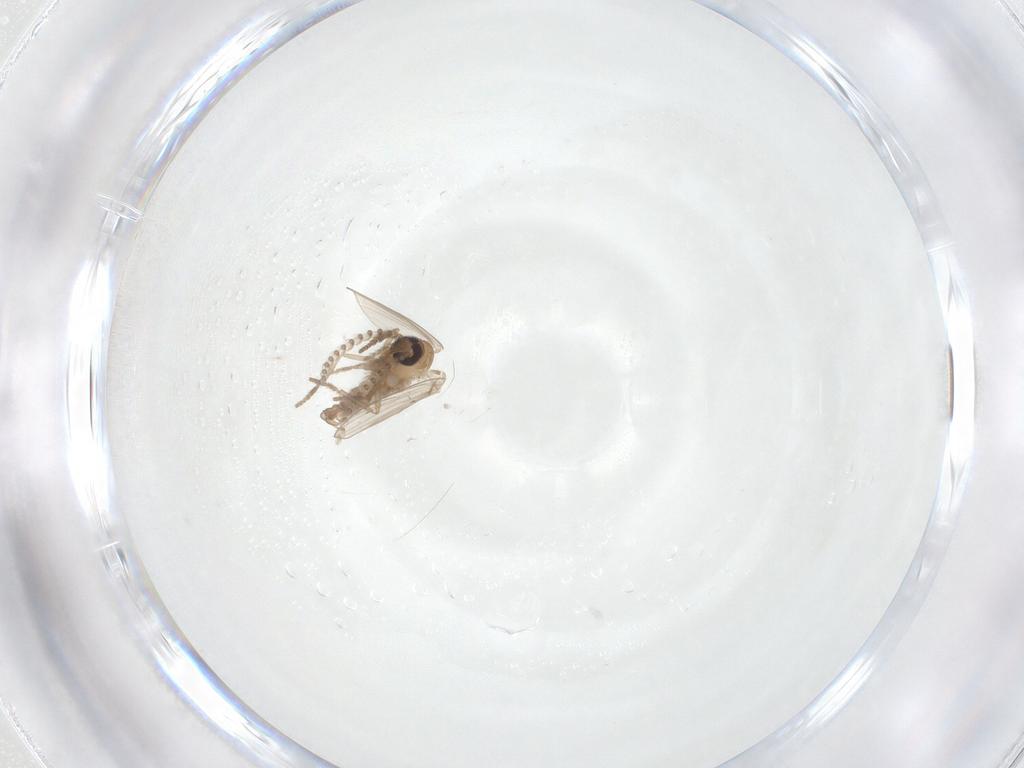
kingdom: Animalia
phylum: Arthropoda
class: Insecta
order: Diptera
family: Psychodidae
